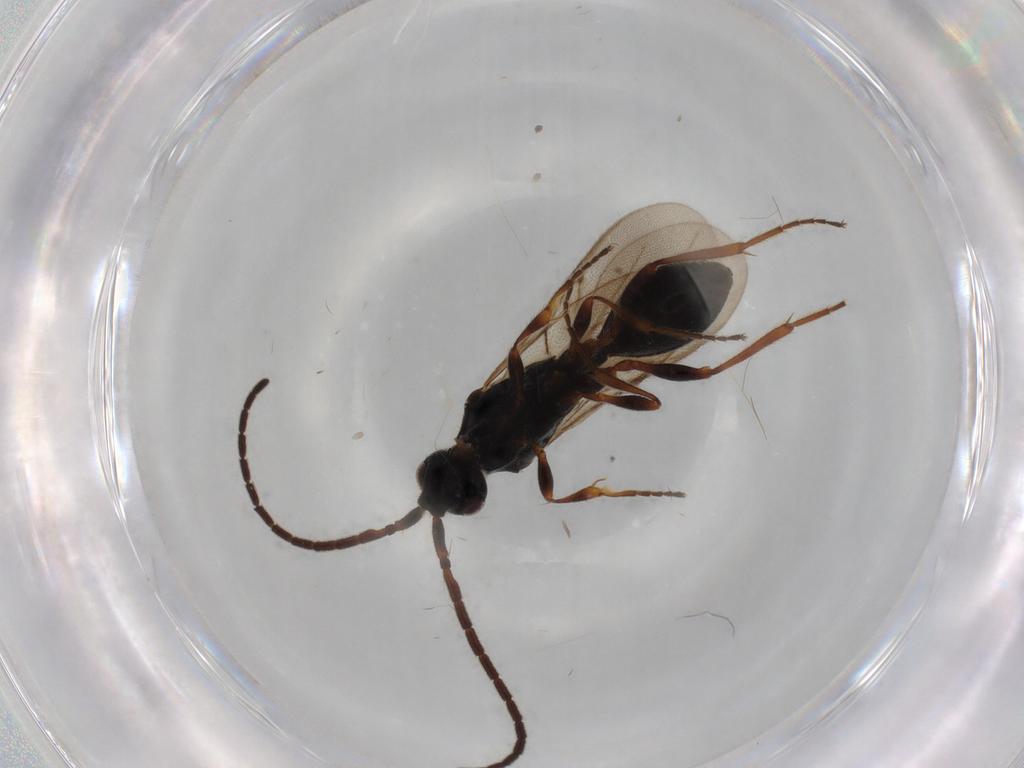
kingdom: Animalia
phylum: Arthropoda
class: Insecta
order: Hymenoptera
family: Ichneumonidae
